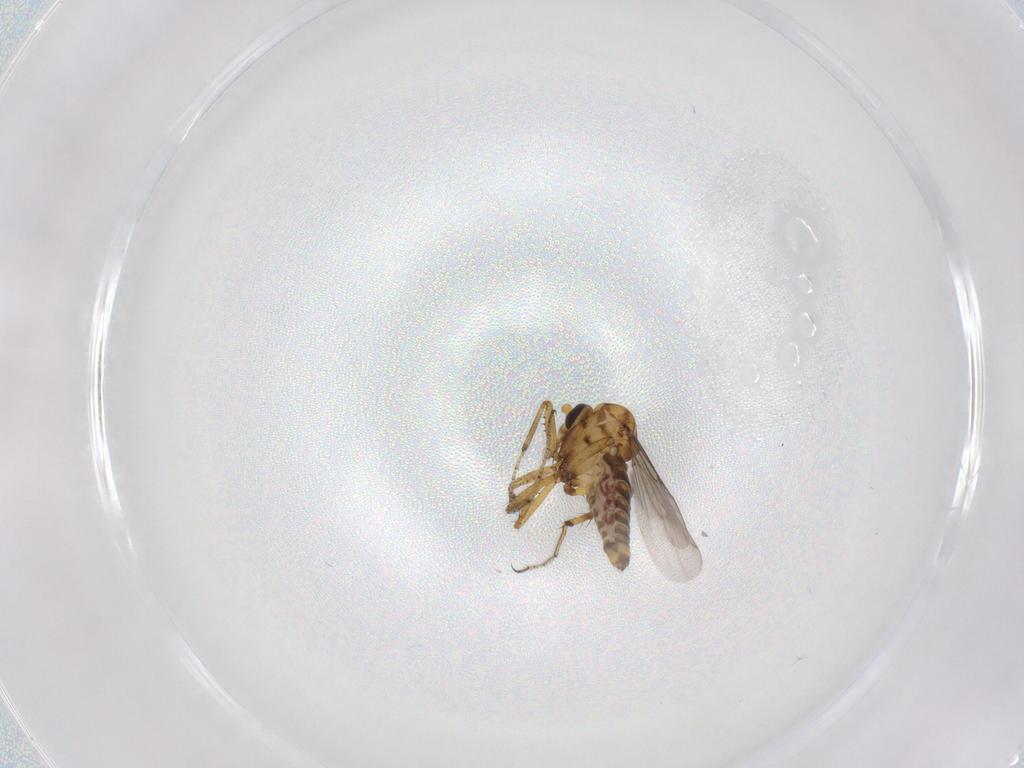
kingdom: Animalia
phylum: Arthropoda
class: Insecta
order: Diptera
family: Ceratopogonidae
